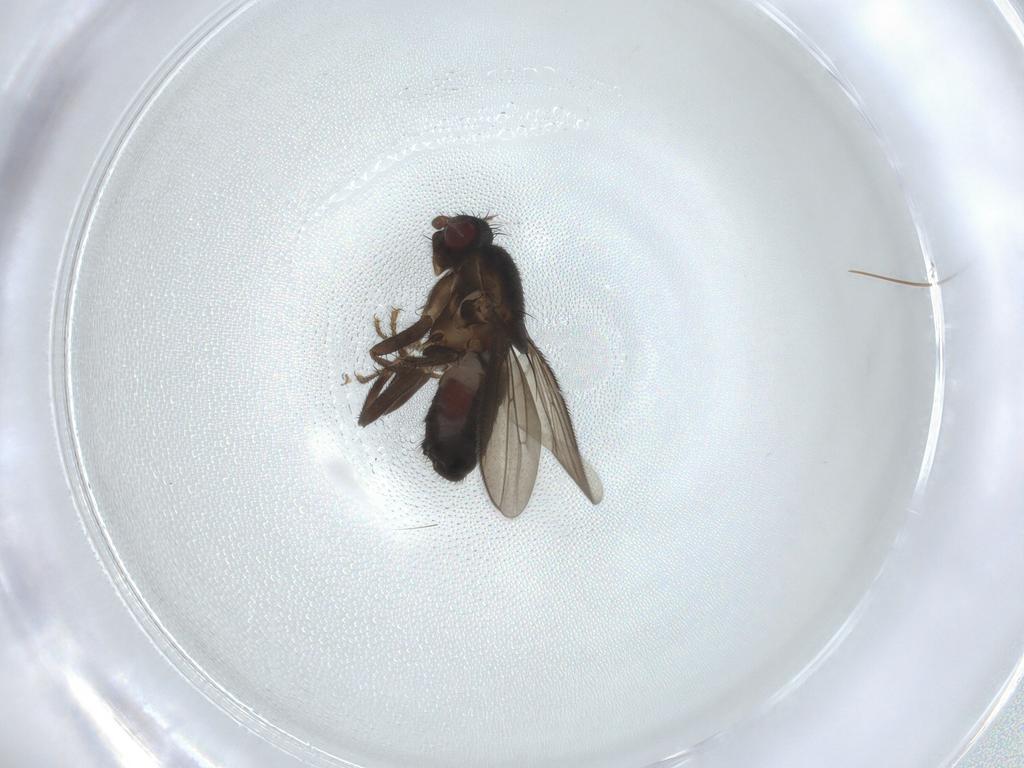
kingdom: Animalia
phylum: Arthropoda
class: Insecta
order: Diptera
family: Sphaeroceridae
